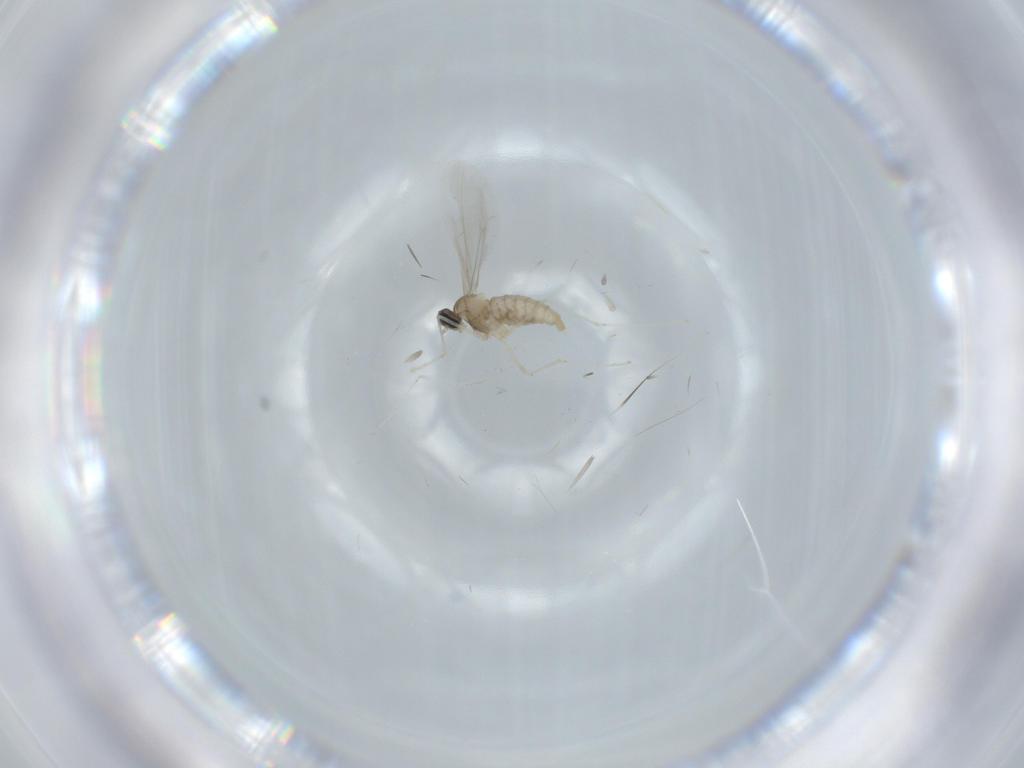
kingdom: Animalia
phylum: Arthropoda
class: Insecta
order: Diptera
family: Cecidomyiidae
